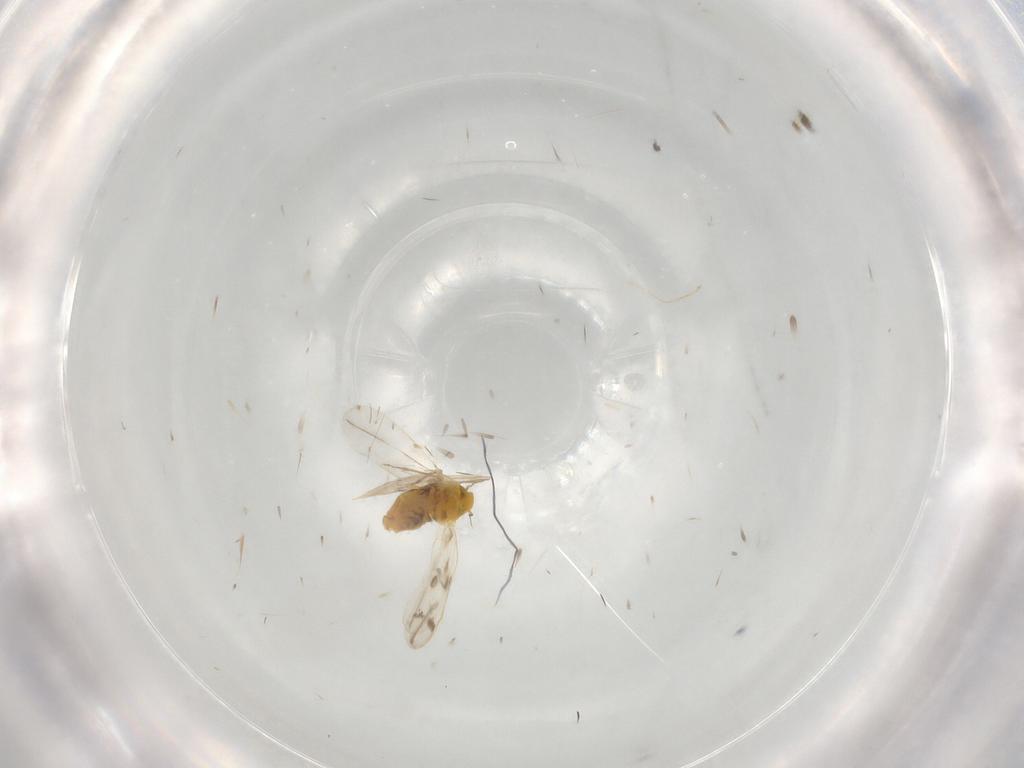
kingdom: Animalia
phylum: Arthropoda
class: Insecta
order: Hemiptera
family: Aleyrodidae
